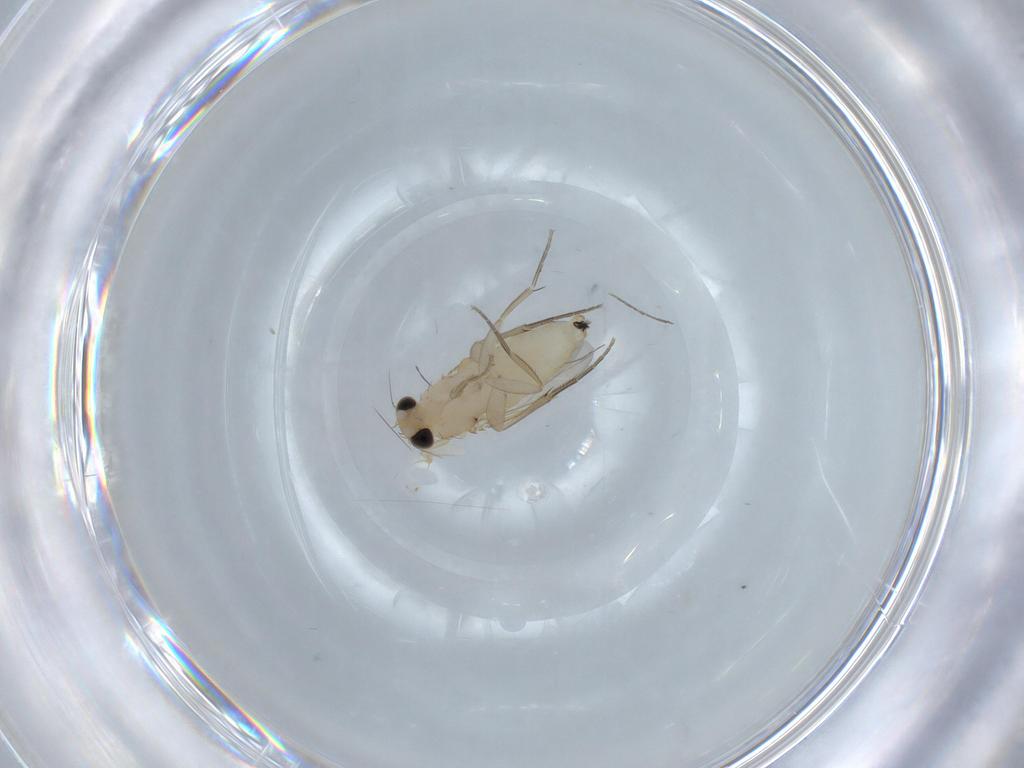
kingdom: Animalia
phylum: Arthropoda
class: Insecta
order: Diptera
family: Cecidomyiidae
